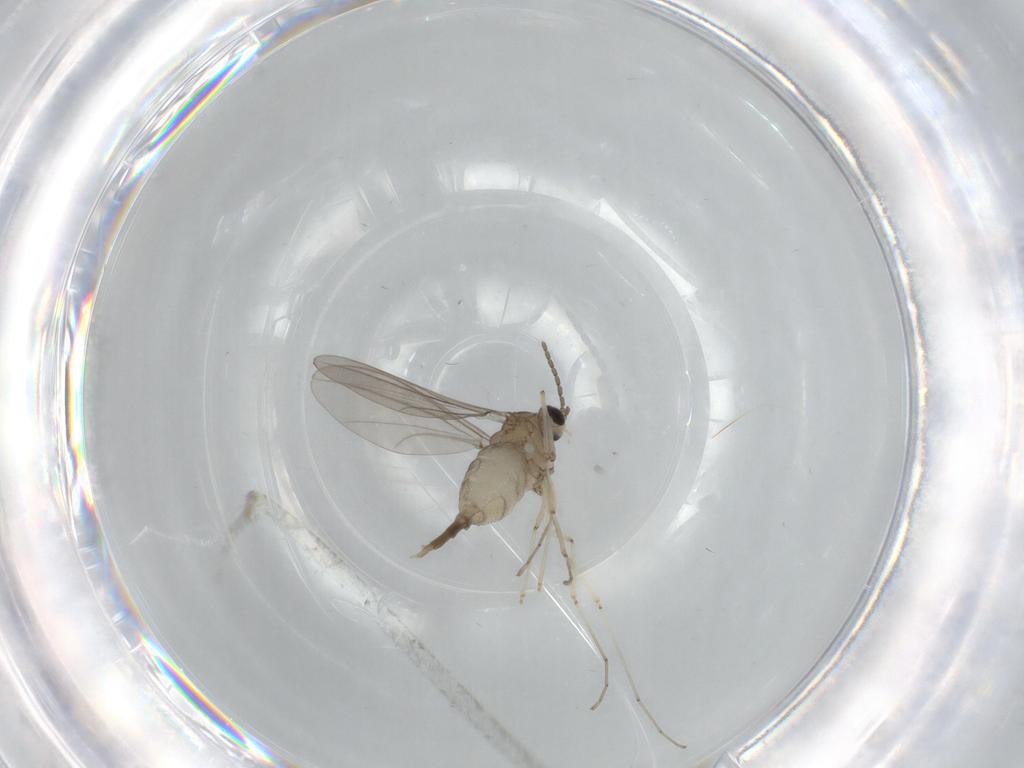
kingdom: Animalia
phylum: Arthropoda
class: Insecta
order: Diptera
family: Cecidomyiidae
